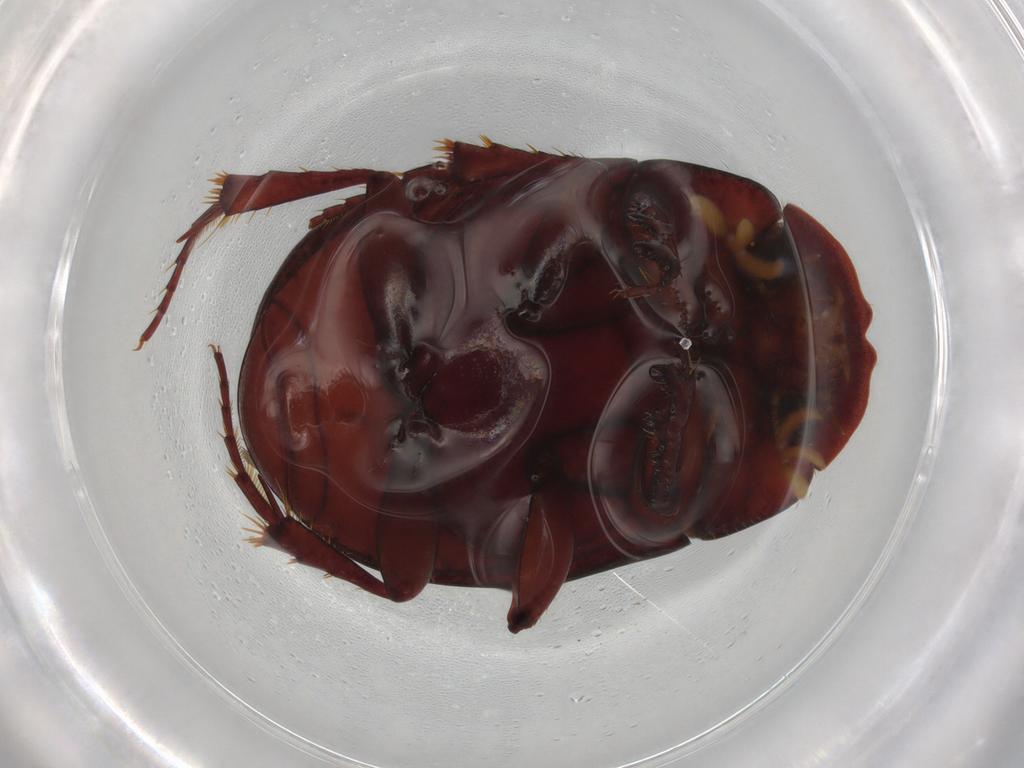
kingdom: Animalia
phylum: Arthropoda
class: Insecta
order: Coleoptera
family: Scarabaeidae
